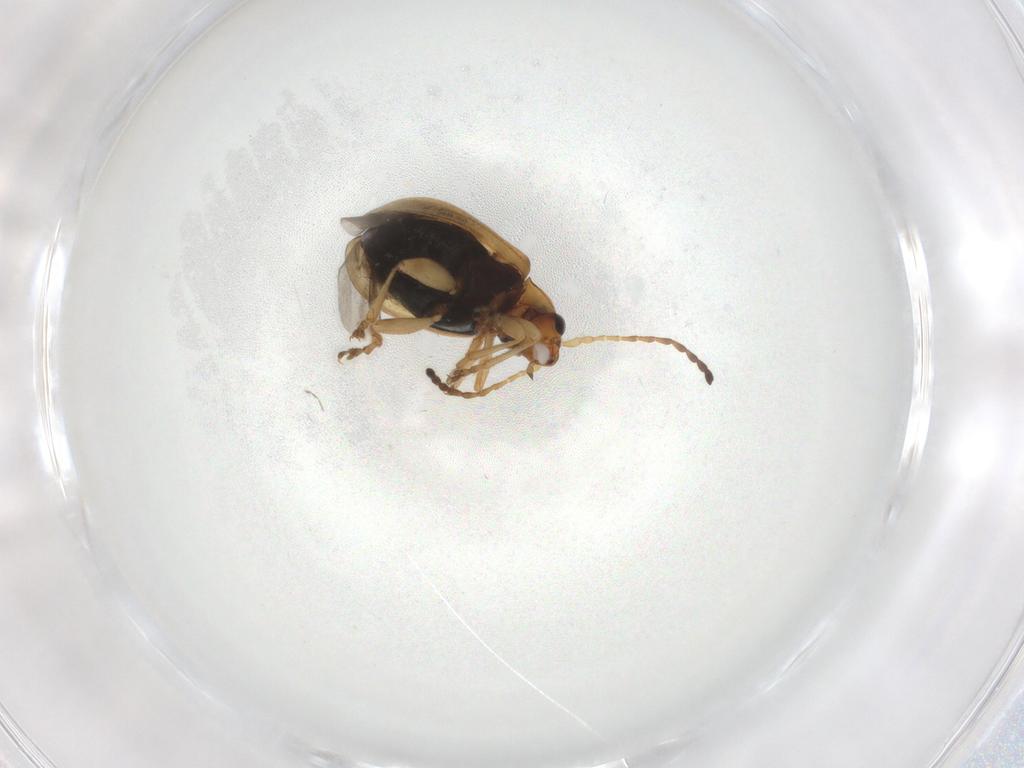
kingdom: Animalia
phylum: Arthropoda
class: Insecta
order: Coleoptera
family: Chrysomelidae
